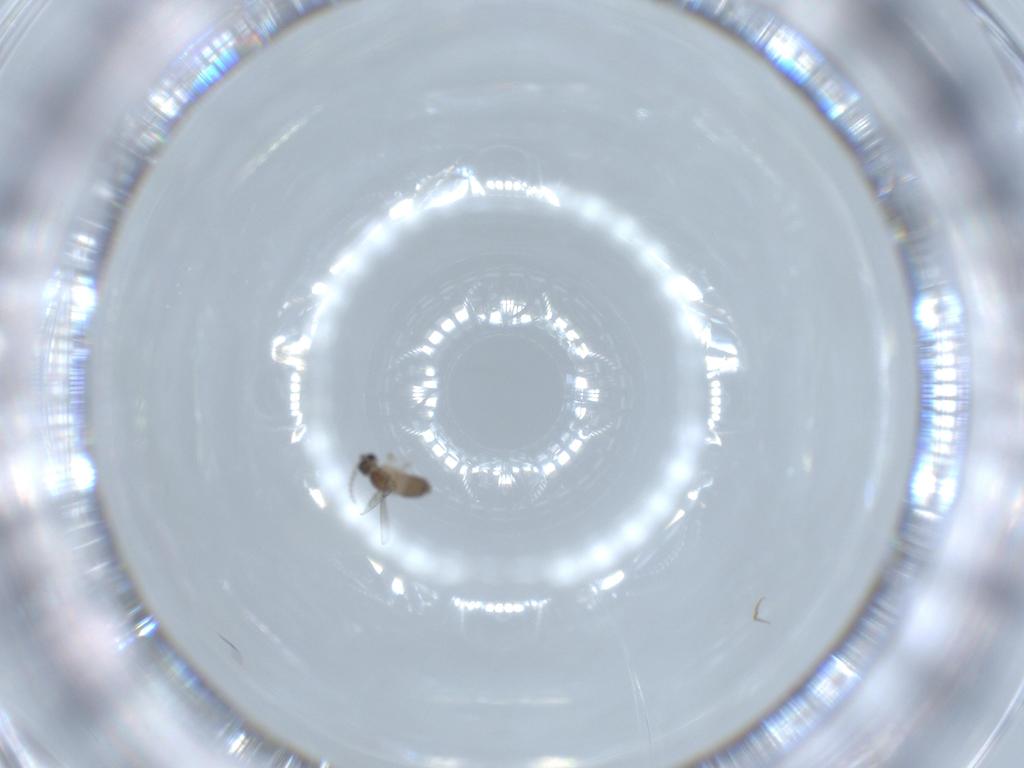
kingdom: Animalia
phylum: Arthropoda
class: Insecta
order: Diptera
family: Cecidomyiidae
